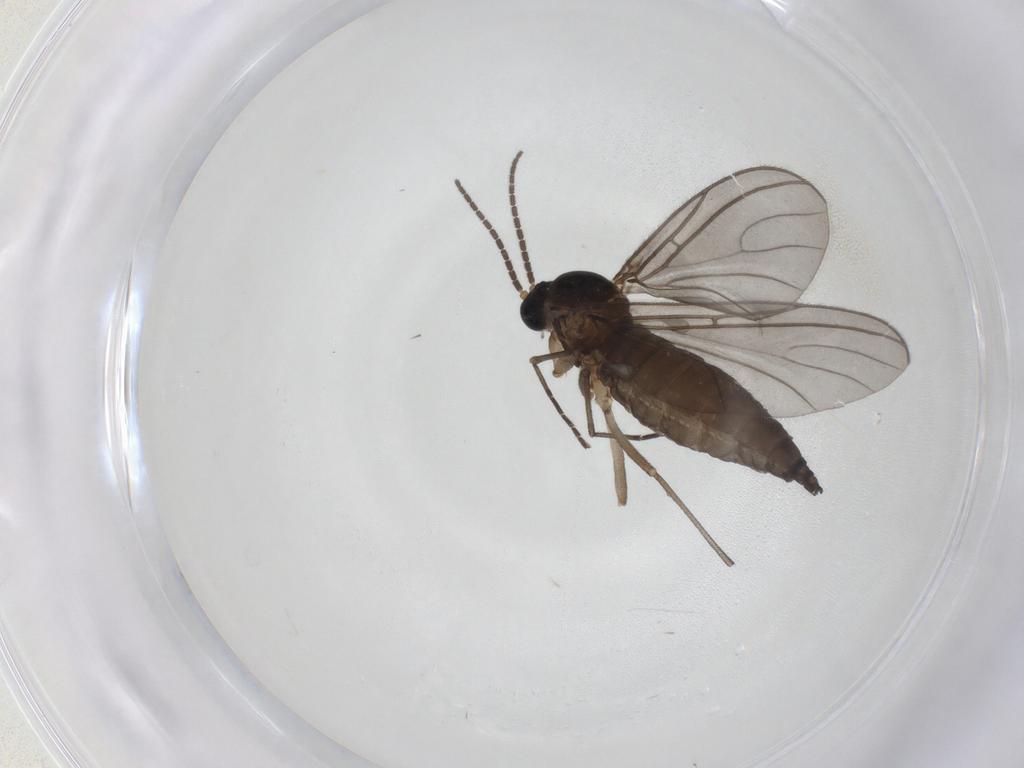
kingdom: Animalia
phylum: Arthropoda
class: Insecta
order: Diptera
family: Sciaridae
